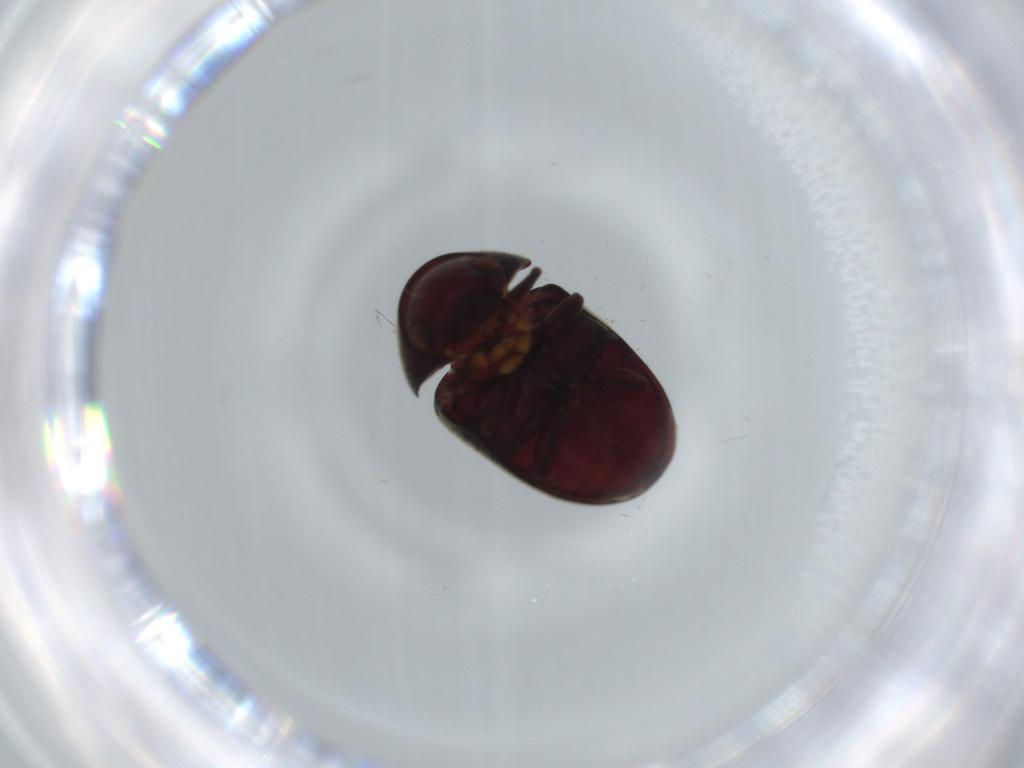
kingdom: Animalia
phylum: Arthropoda
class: Insecta
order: Coleoptera
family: Ptinidae
